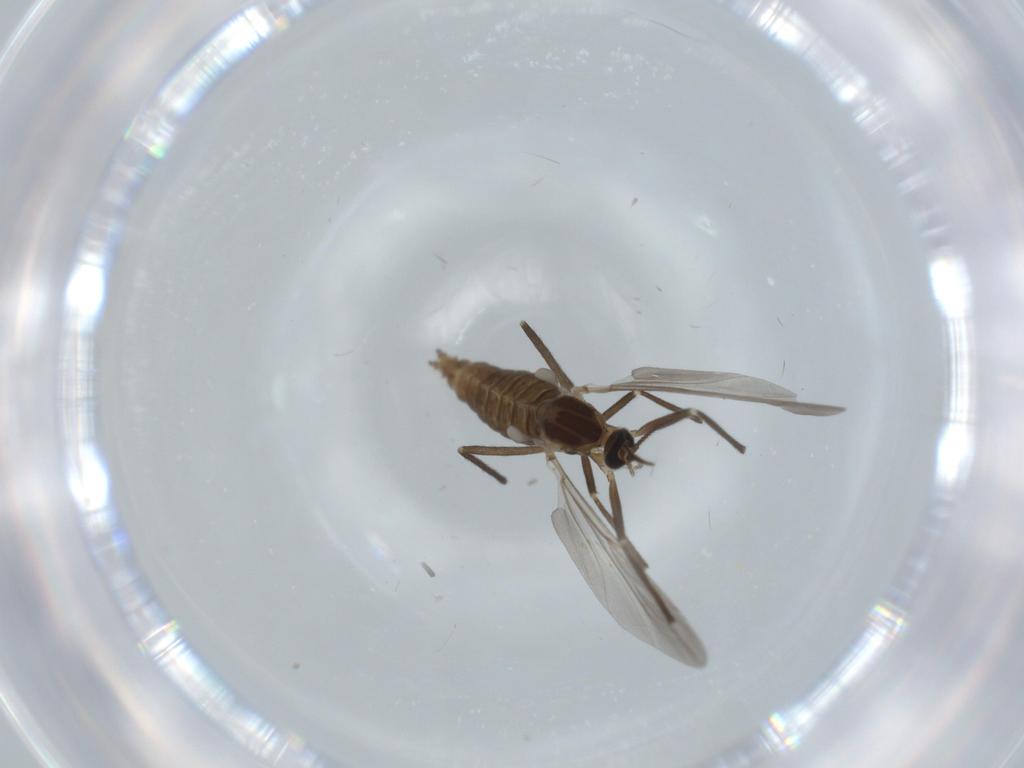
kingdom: Animalia
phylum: Arthropoda
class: Insecta
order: Diptera
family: Cecidomyiidae
